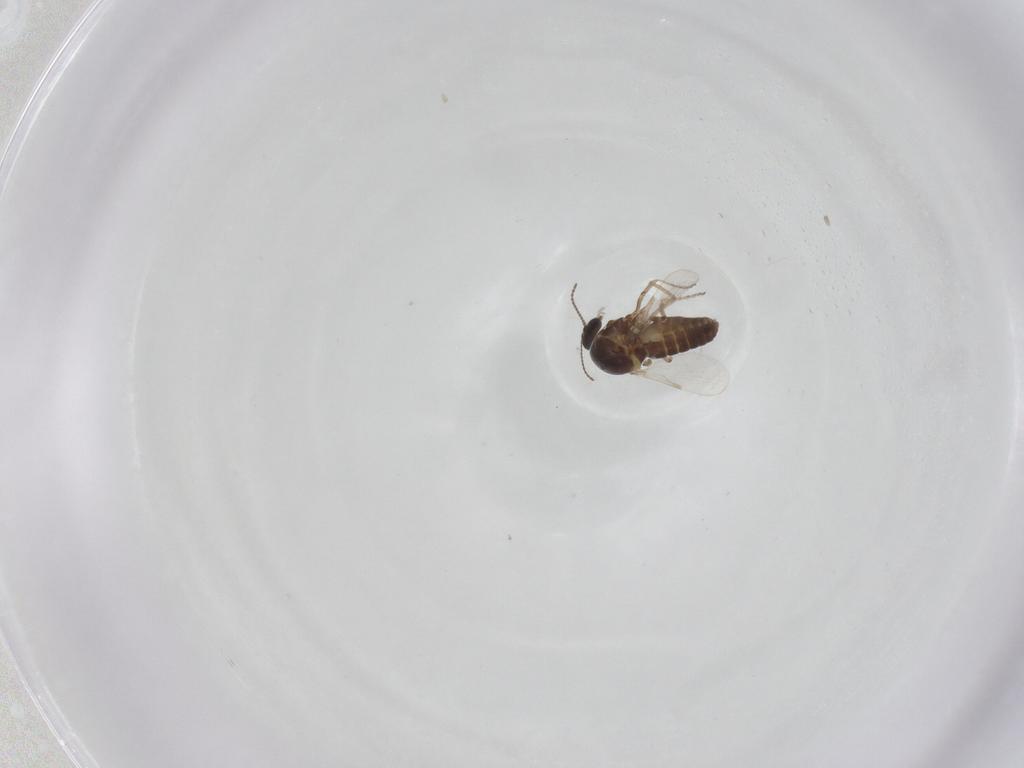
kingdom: Animalia
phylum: Arthropoda
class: Insecta
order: Diptera
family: Ceratopogonidae
